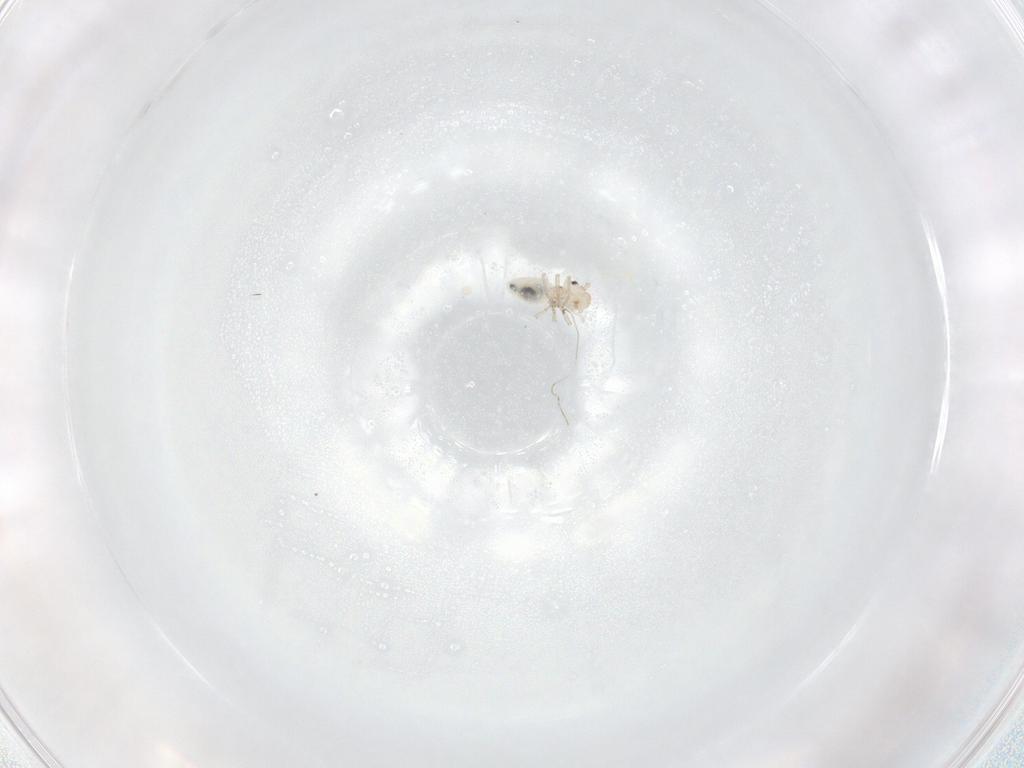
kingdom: Animalia
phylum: Arthropoda
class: Insecta
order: Psocodea
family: Caeciliusidae
